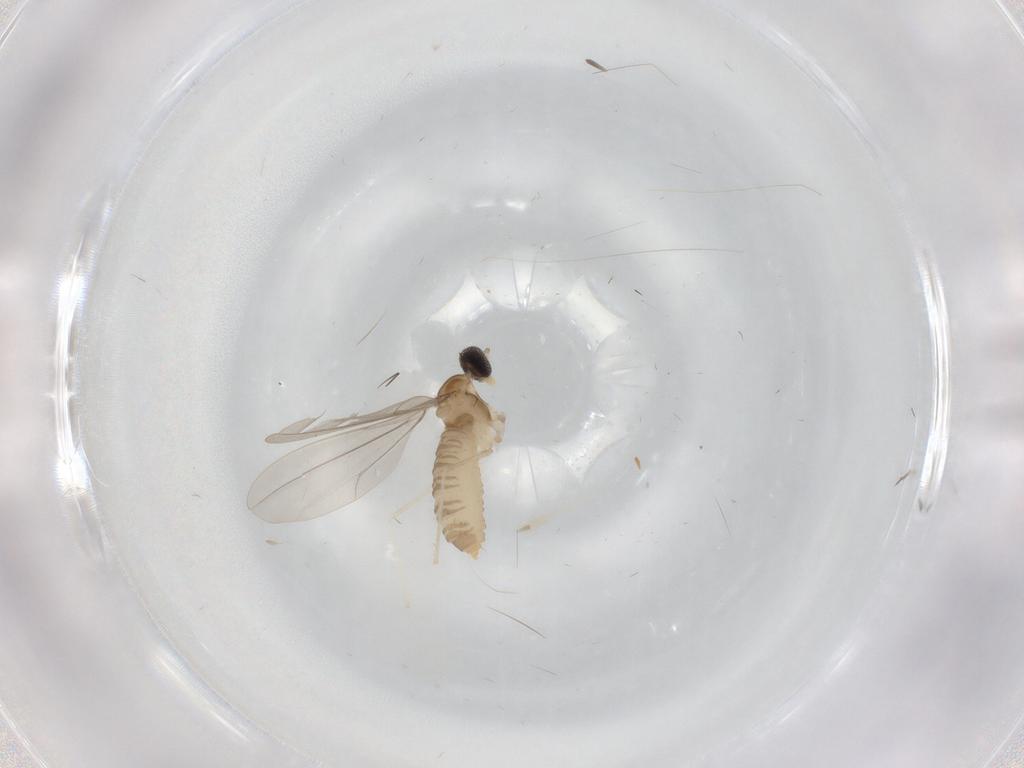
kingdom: Animalia
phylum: Arthropoda
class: Insecta
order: Diptera
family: Cecidomyiidae
